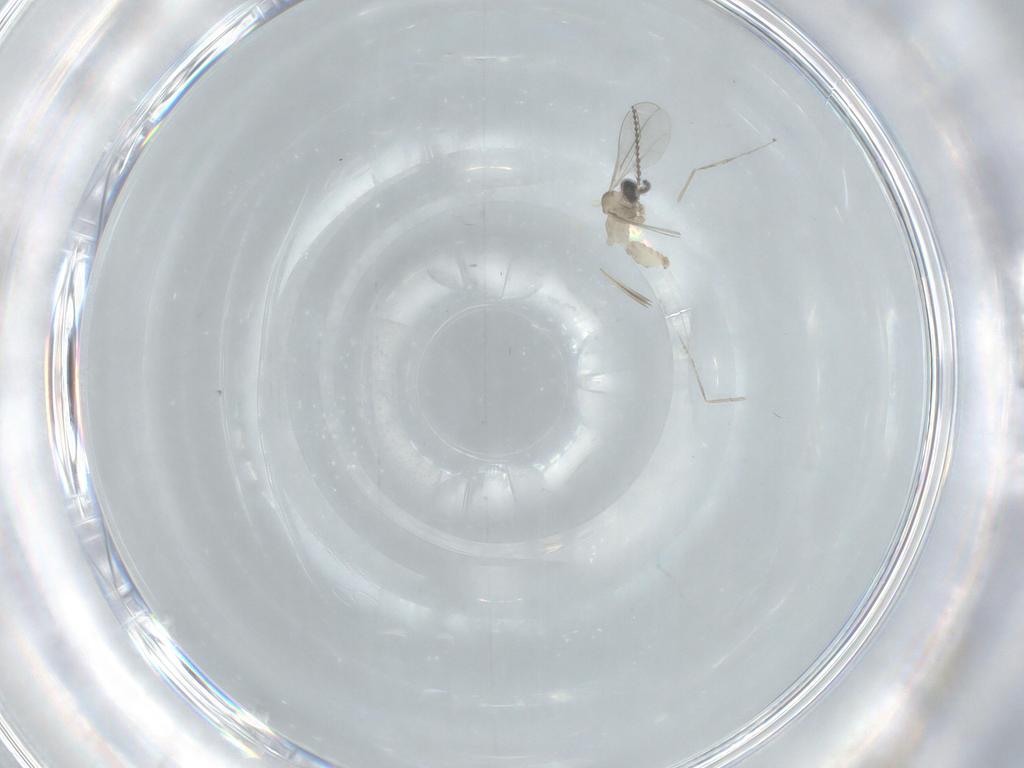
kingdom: Animalia
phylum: Arthropoda
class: Insecta
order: Diptera
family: Cecidomyiidae
